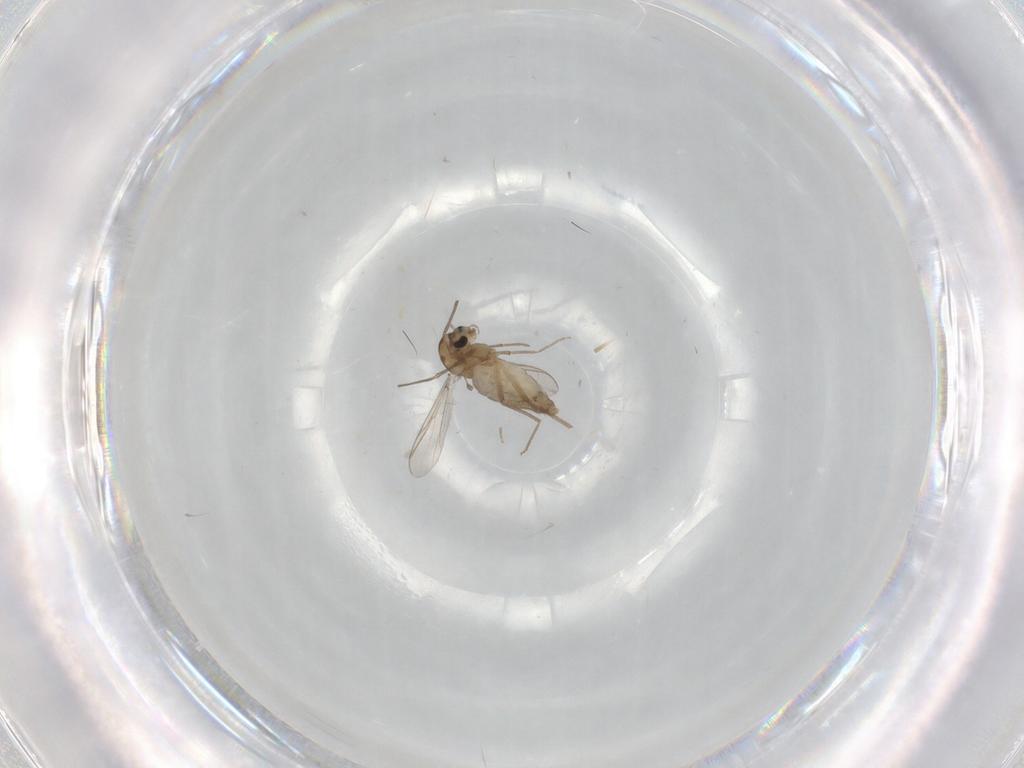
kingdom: Animalia
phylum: Arthropoda
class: Insecta
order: Diptera
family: Chironomidae
